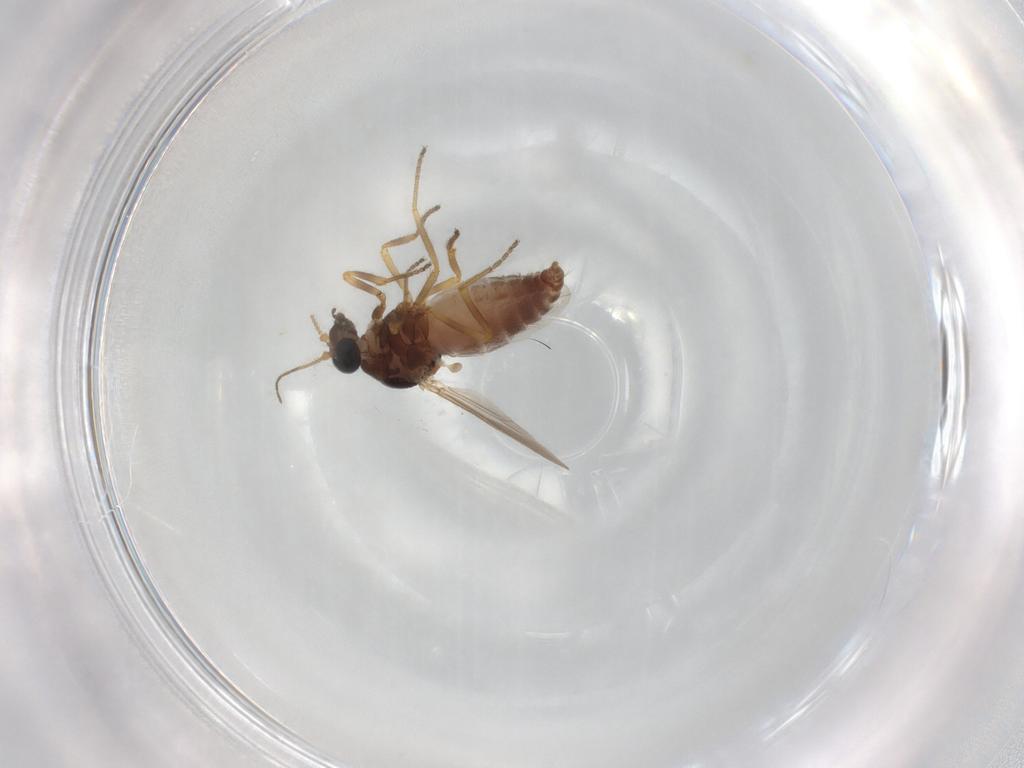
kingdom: Animalia
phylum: Arthropoda
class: Insecta
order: Diptera
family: Ceratopogonidae
